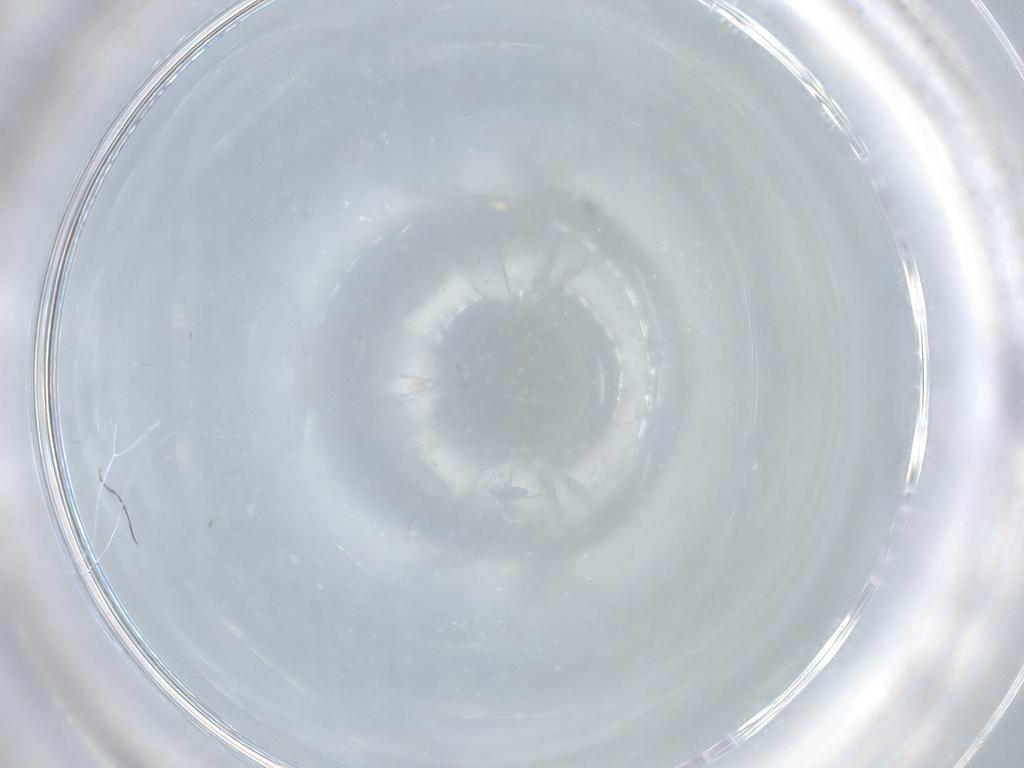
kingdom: Animalia
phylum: Arthropoda
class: Insecta
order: Diptera
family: Sciaridae
